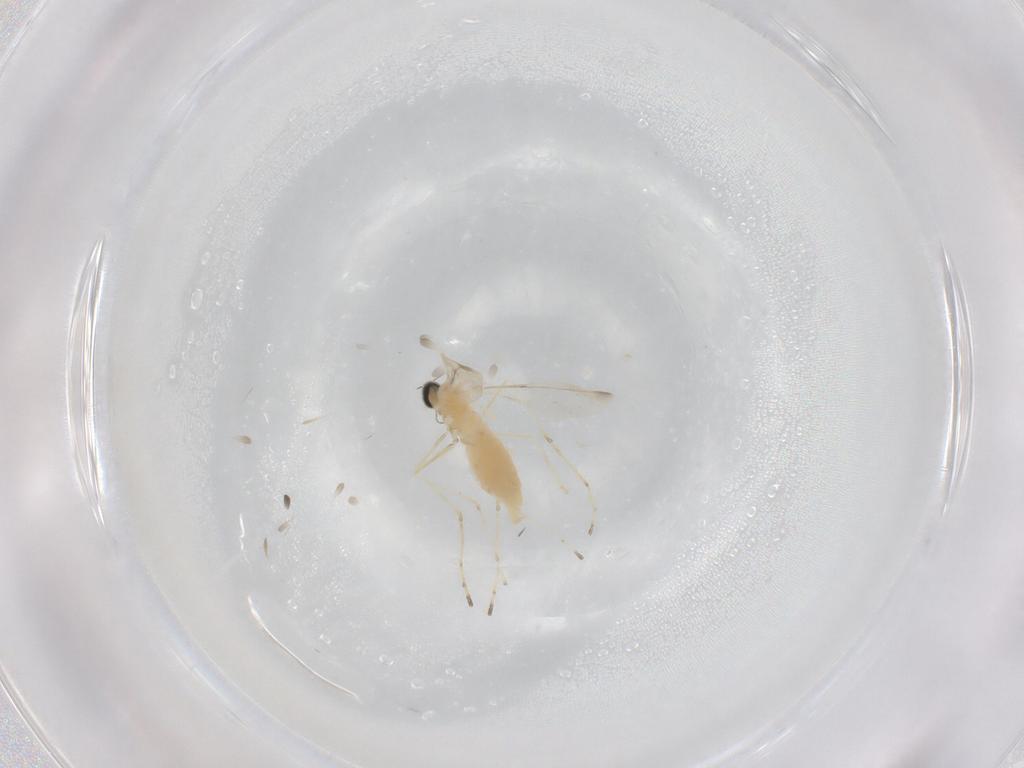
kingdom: Animalia
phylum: Arthropoda
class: Insecta
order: Diptera
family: Cecidomyiidae
